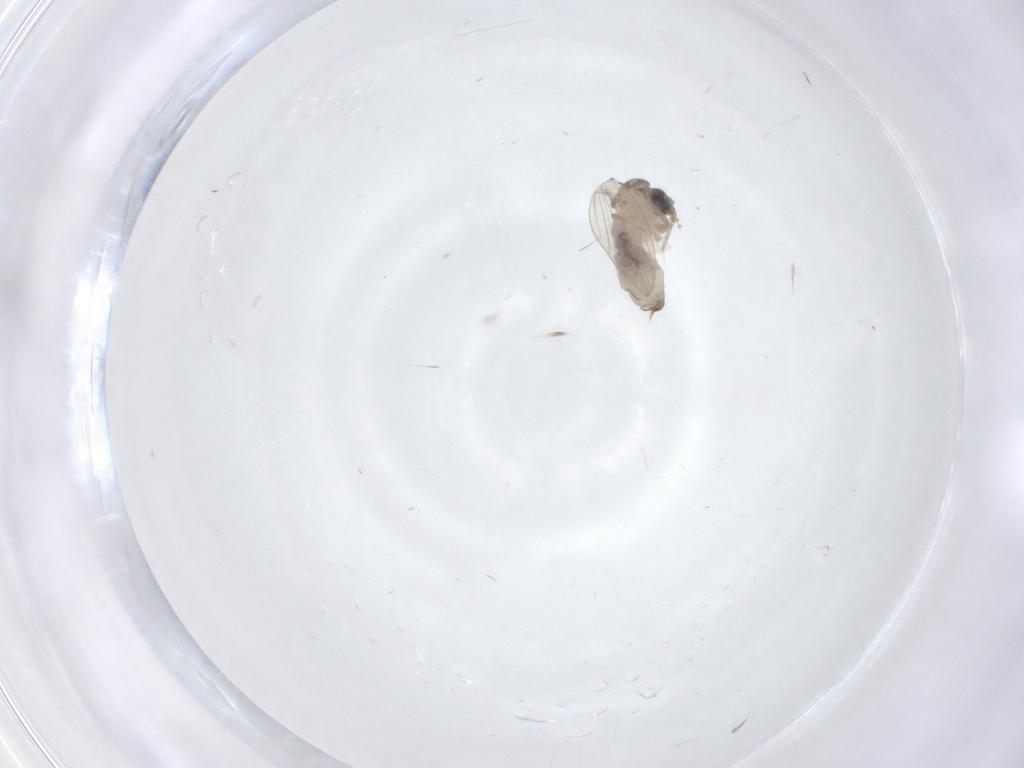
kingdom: Animalia
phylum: Arthropoda
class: Insecta
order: Diptera
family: Psychodidae
